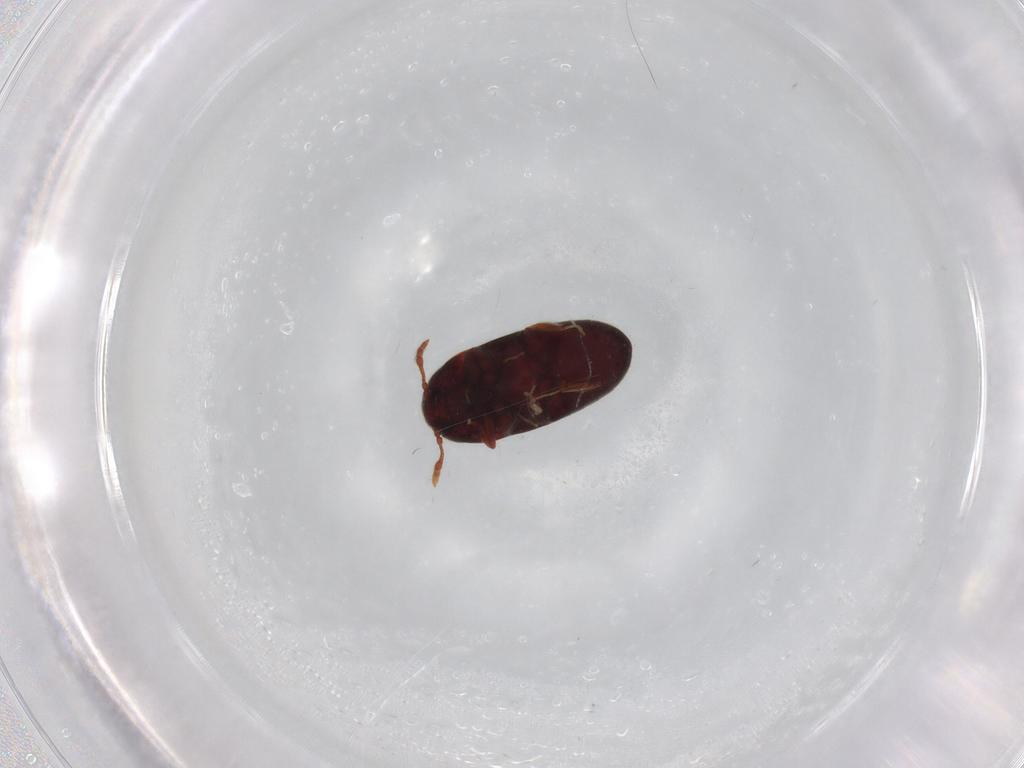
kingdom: Animalia
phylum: Arthropoda
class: Insecta
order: Coleoptera
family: Throscidae
